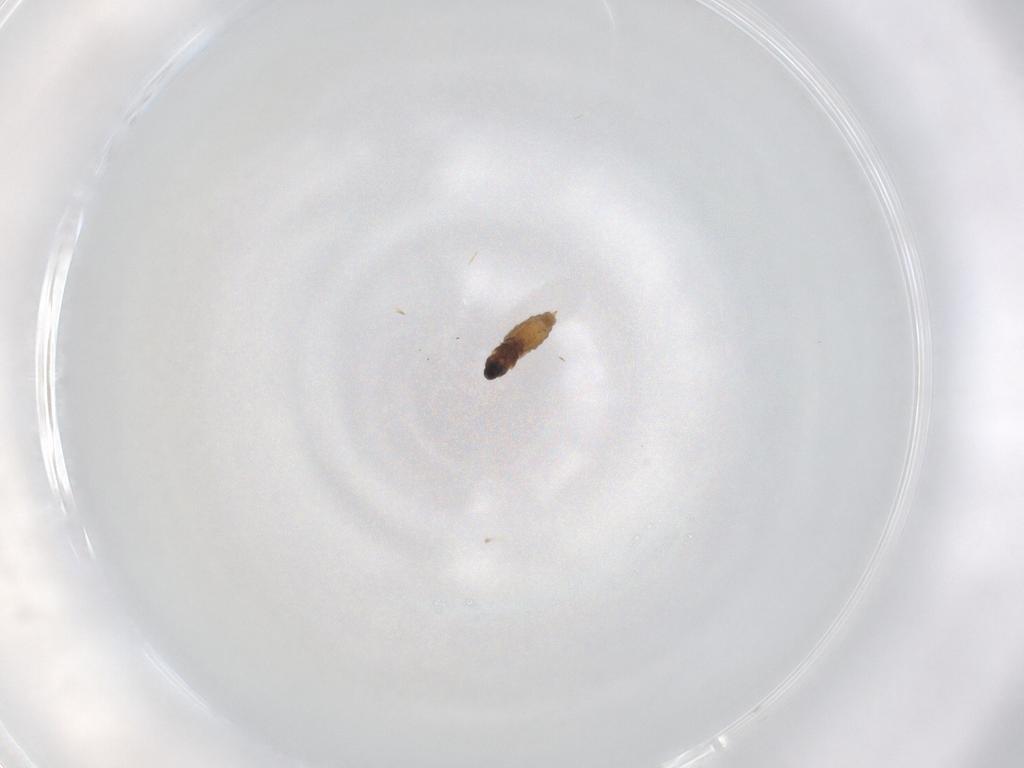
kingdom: Animalia
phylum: Arthropoda
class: Insecta
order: Diptera
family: Cecidomyiidae
